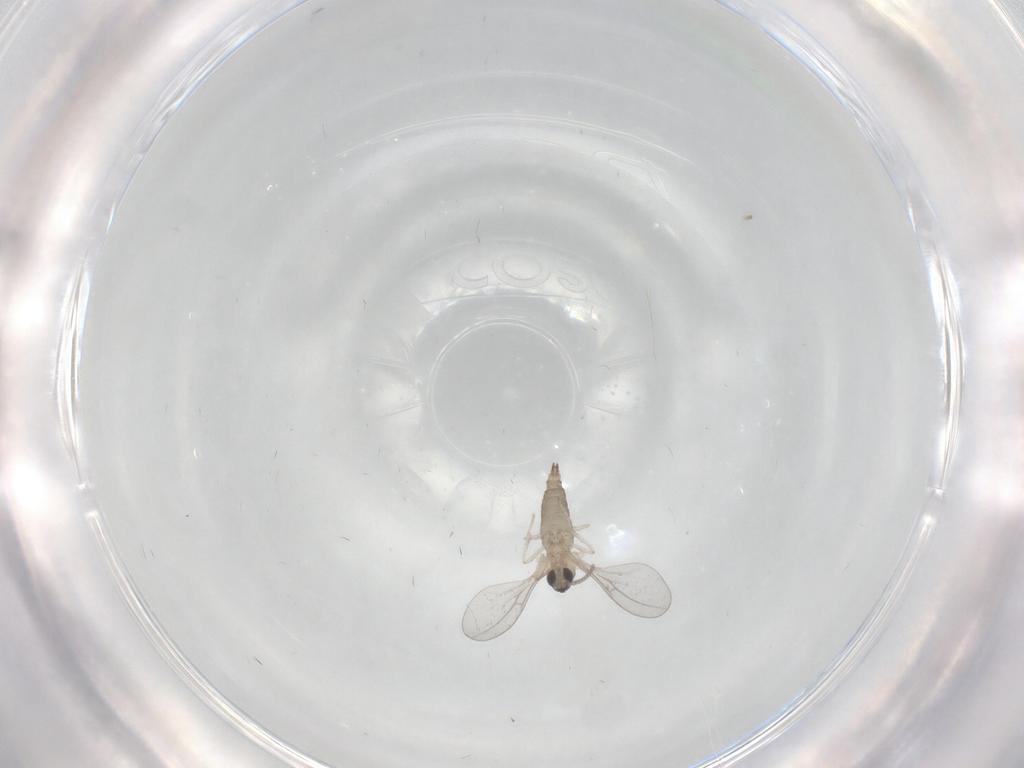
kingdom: Animalia
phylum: Arthropoda
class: Insecta
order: Diptera
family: Cecidomyiidae
